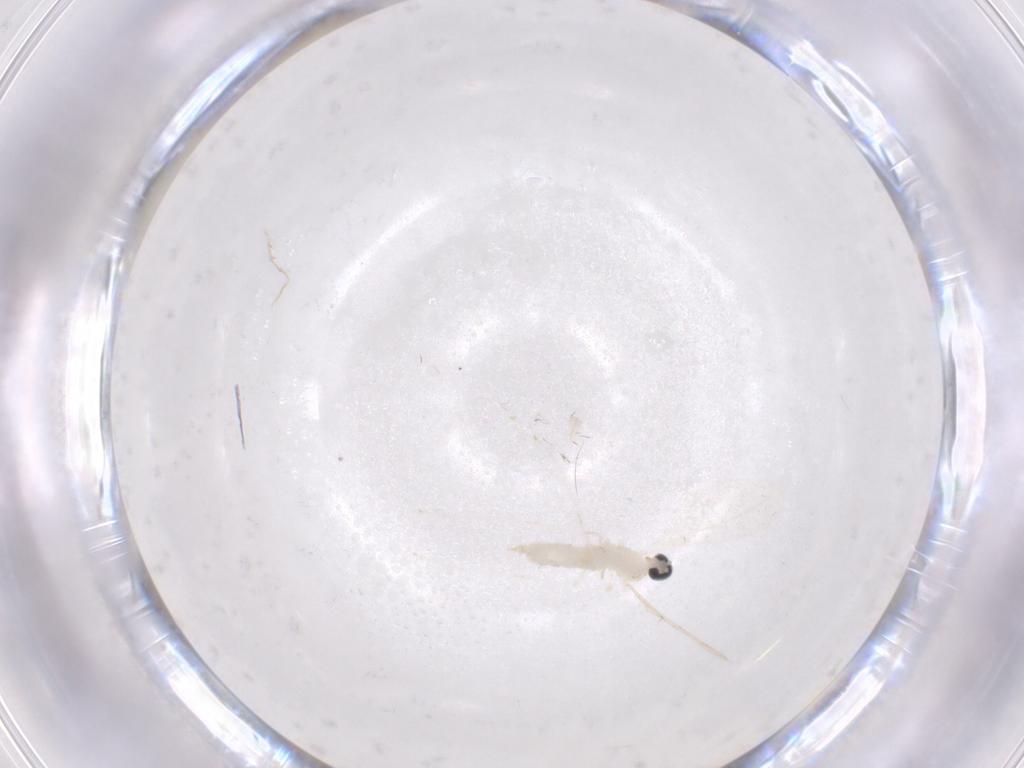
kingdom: Animalia
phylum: Arthropoda
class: Insecta
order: Diptera
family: Cecidomyiidae
